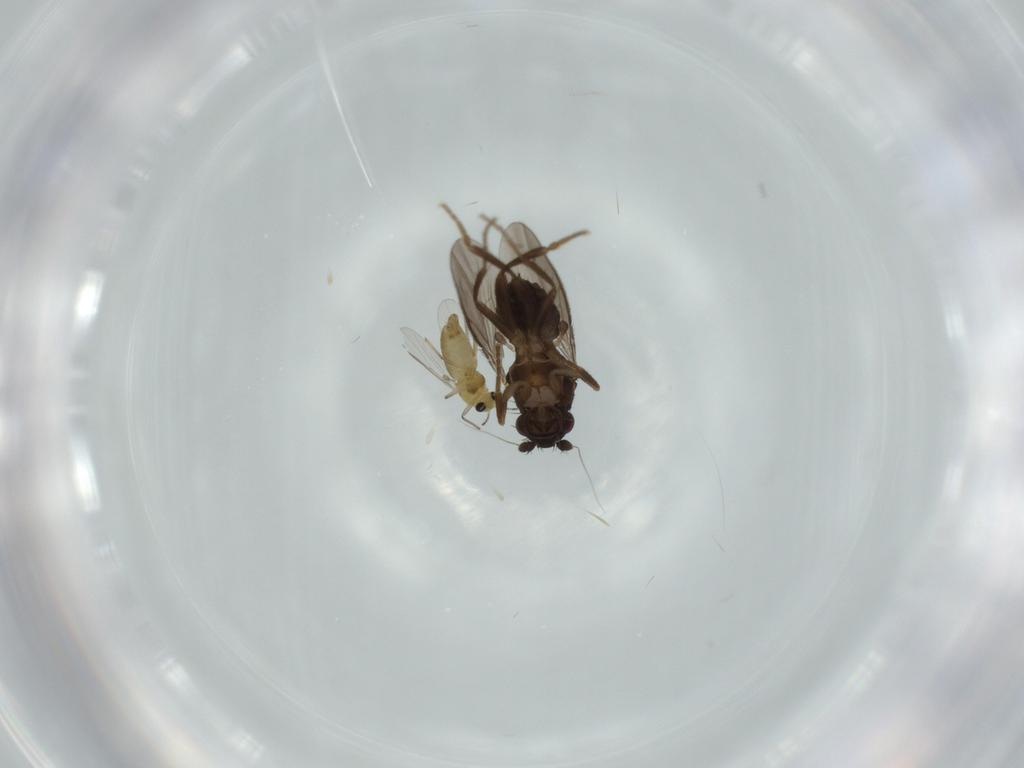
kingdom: Animalia
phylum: Arthropoda
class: Insecta
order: Diptera
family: Sphaeroceridae
